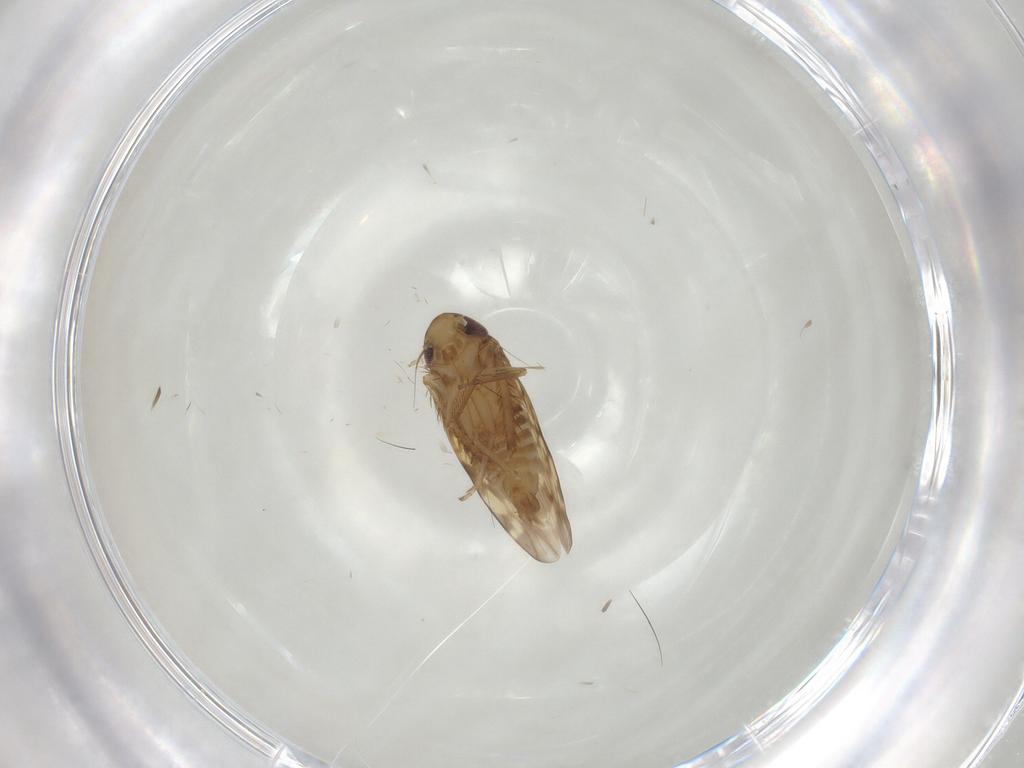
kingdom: Animalia
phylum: Arthropoda
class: Insecta
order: Hemiptera
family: Cicadellidae
